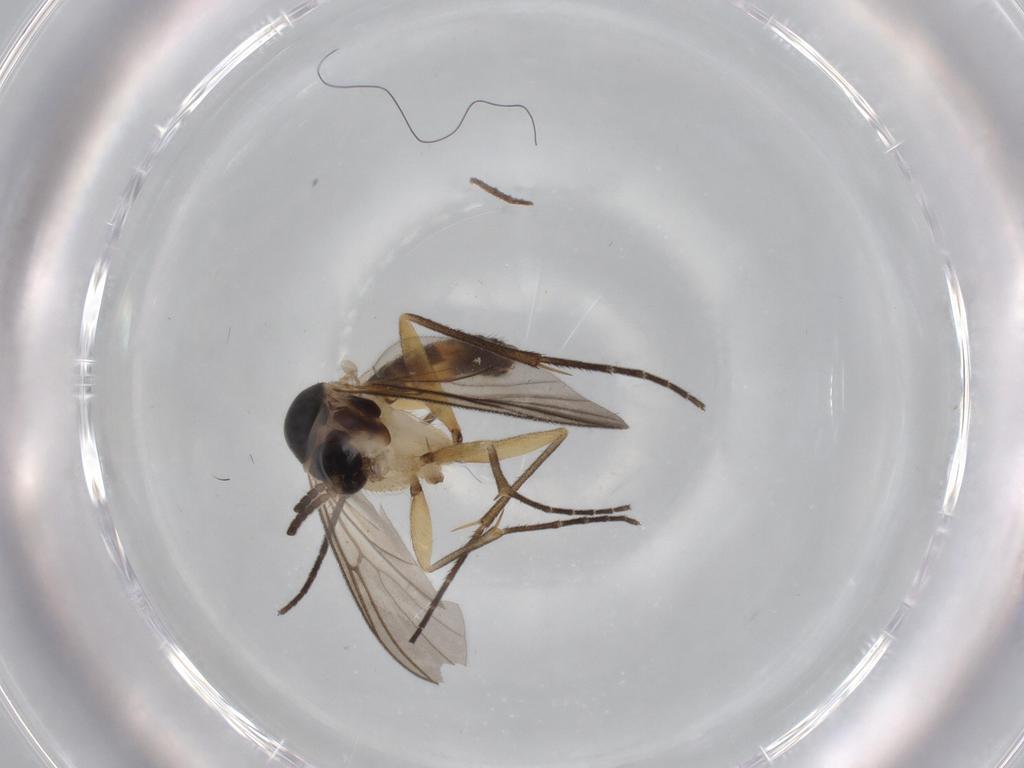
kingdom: Animalia
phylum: Arthropoda
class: Insecta
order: Diptera
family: Mycetophilidae
